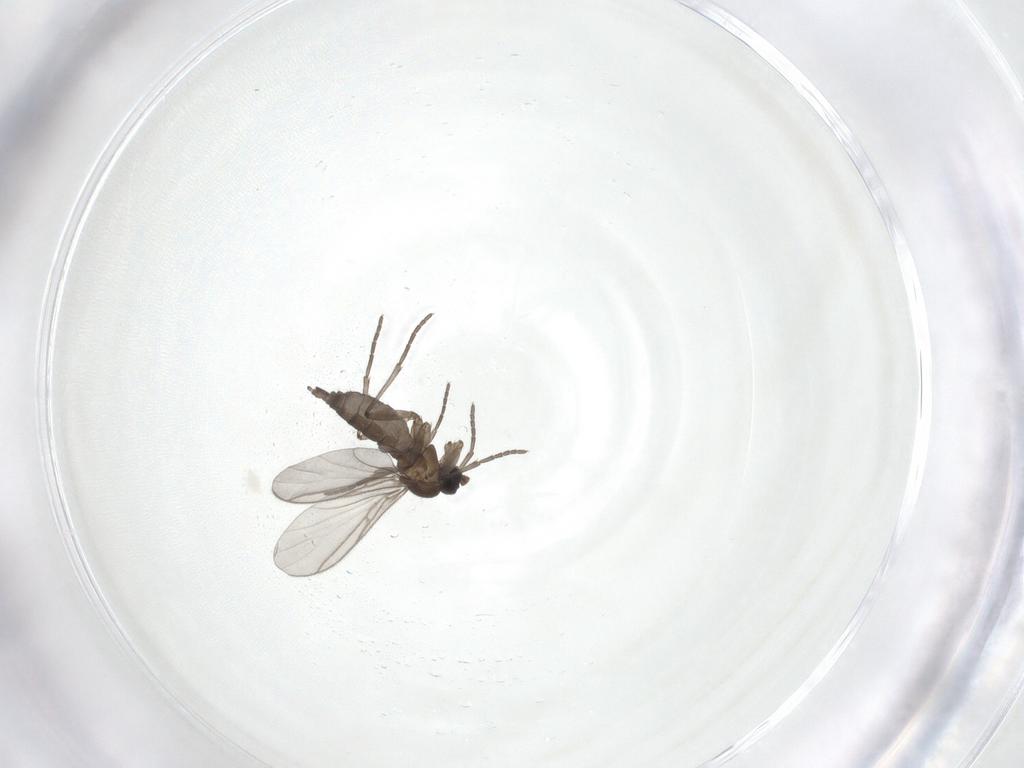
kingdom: Animalia
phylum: Arthropoda
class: Insecta
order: Diptera
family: Sciaridae
